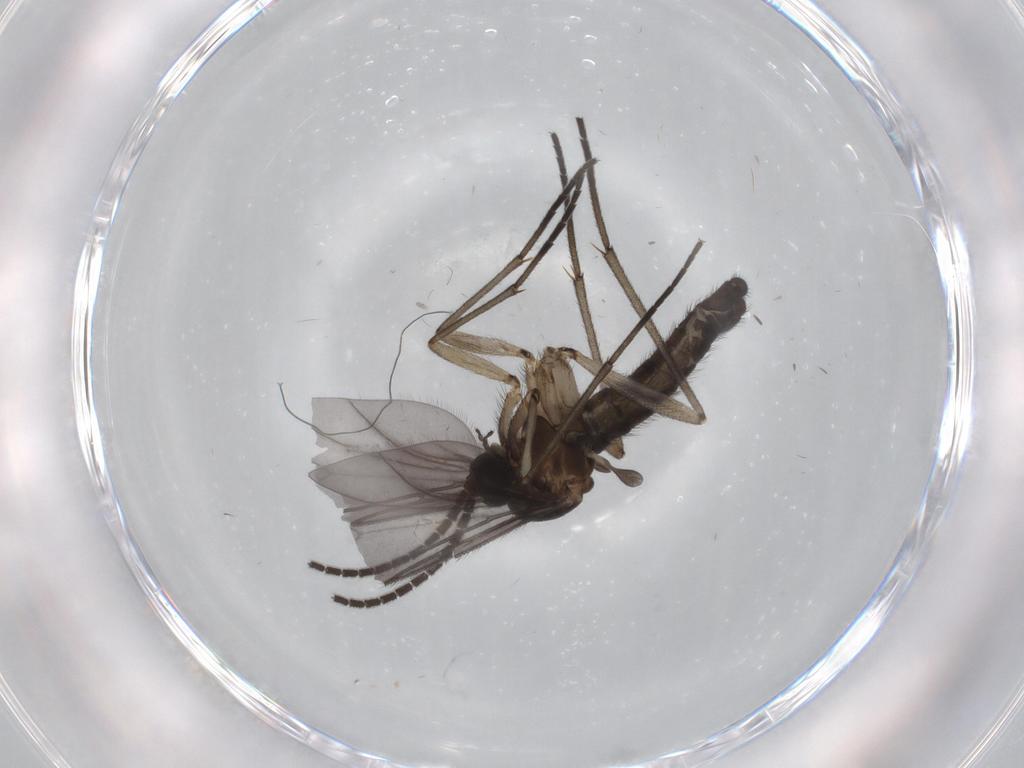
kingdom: Animalia
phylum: Arthropoda
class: Insecta
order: Diptera
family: Sciaridae
